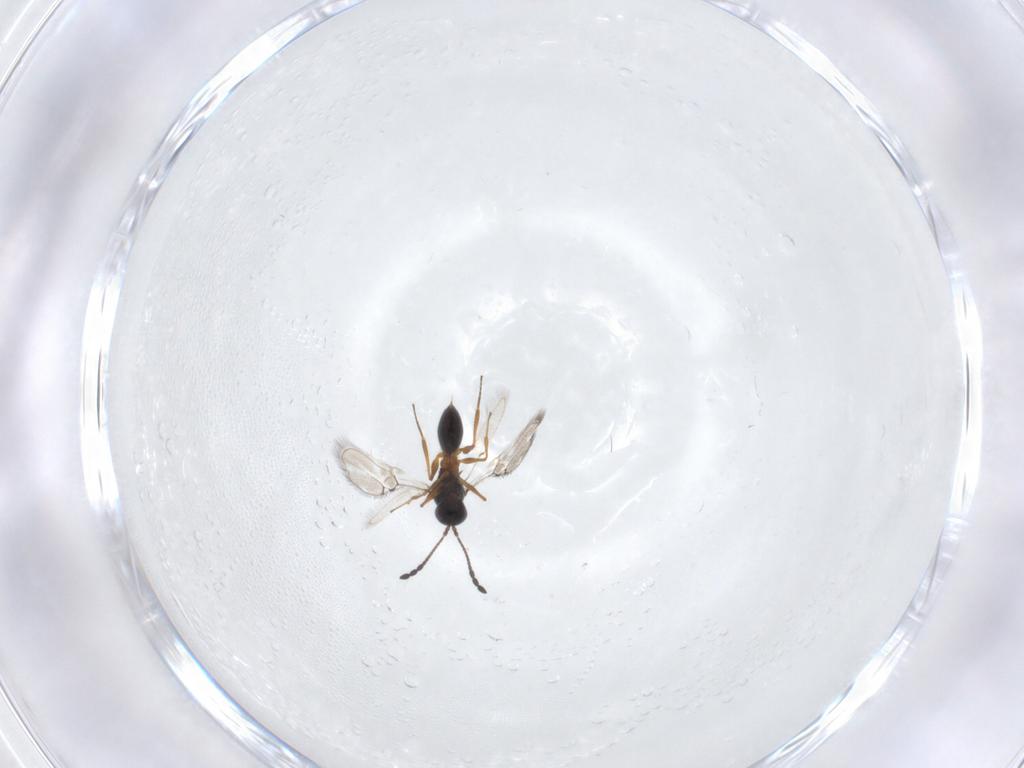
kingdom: Animalia
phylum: Arthropoda
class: Insecta
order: Hymenoptera
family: Figitidae
